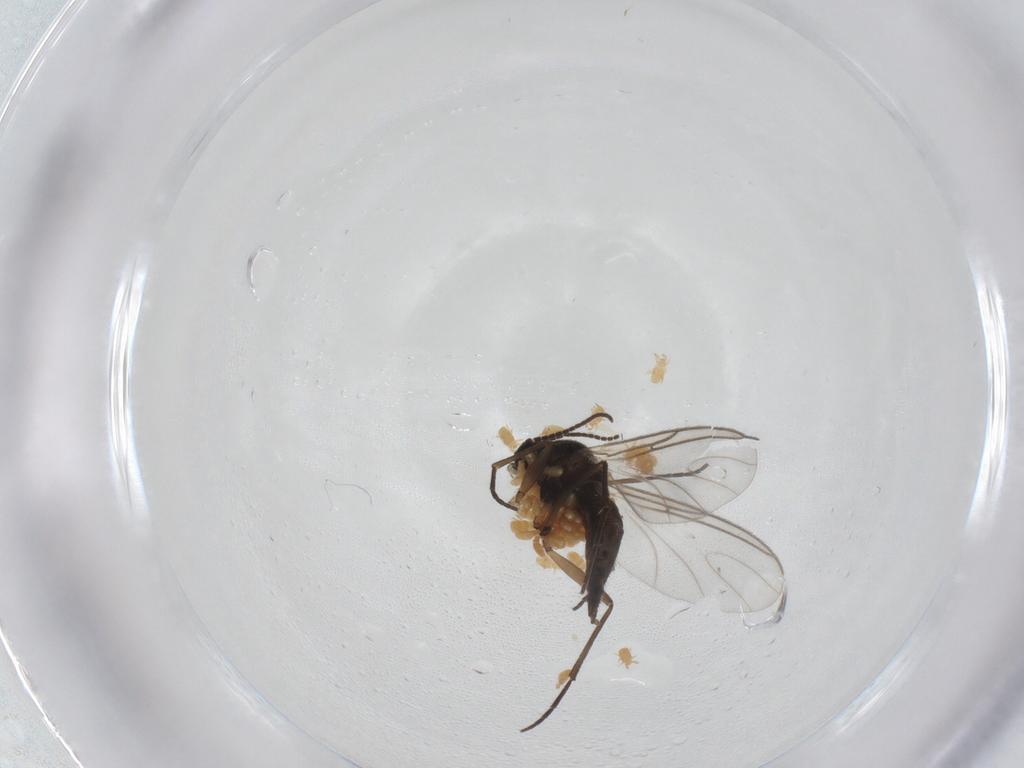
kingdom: Animalia
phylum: Arthropoda
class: Insecta
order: Diptera
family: Sciaridae
